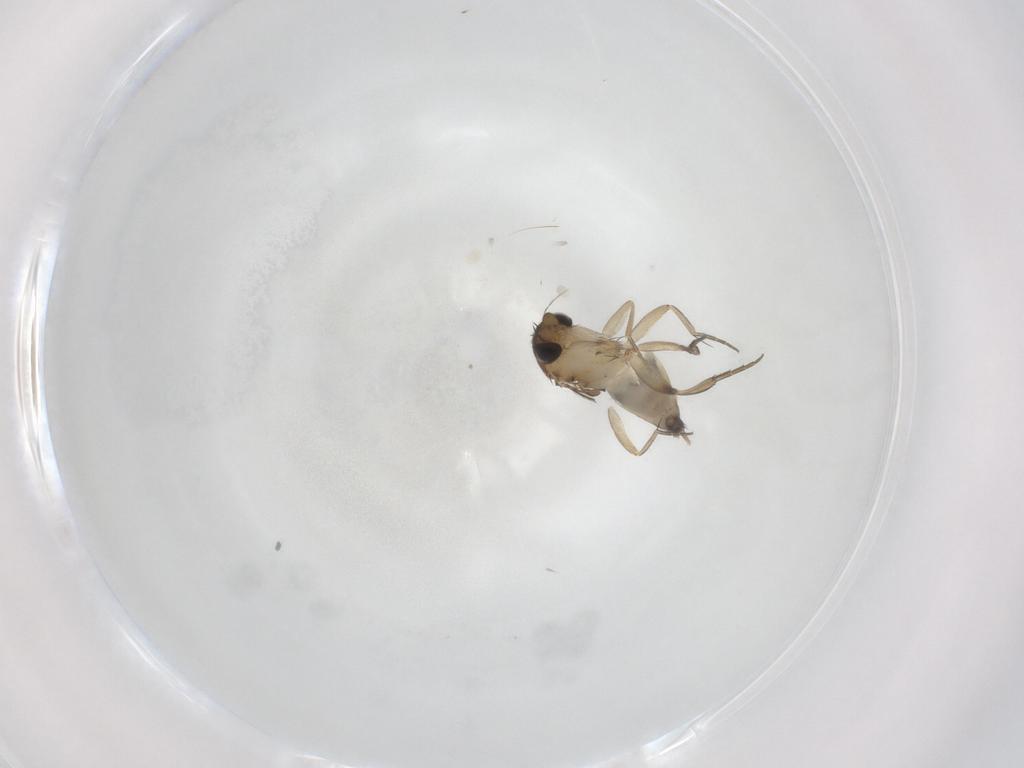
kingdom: Animalia
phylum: Arthropoda
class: Insecta
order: Diptera
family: Phoridae
